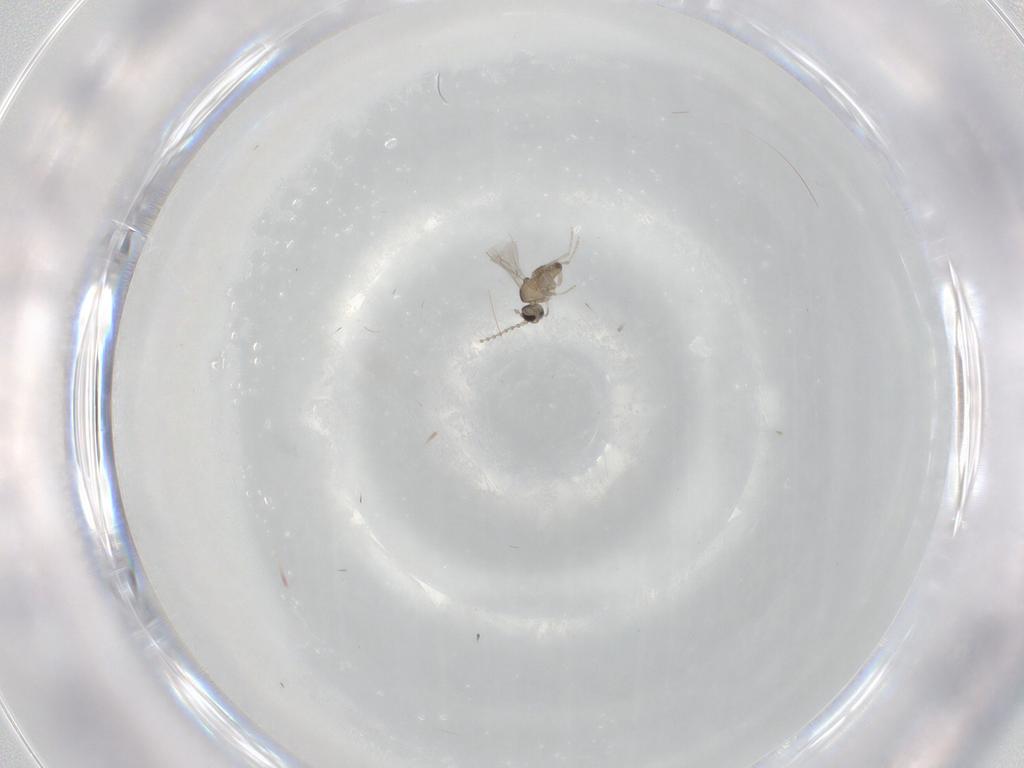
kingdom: Animalia
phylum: Arthropoda
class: Insecta
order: Diptera
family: Cecidomyiidae
